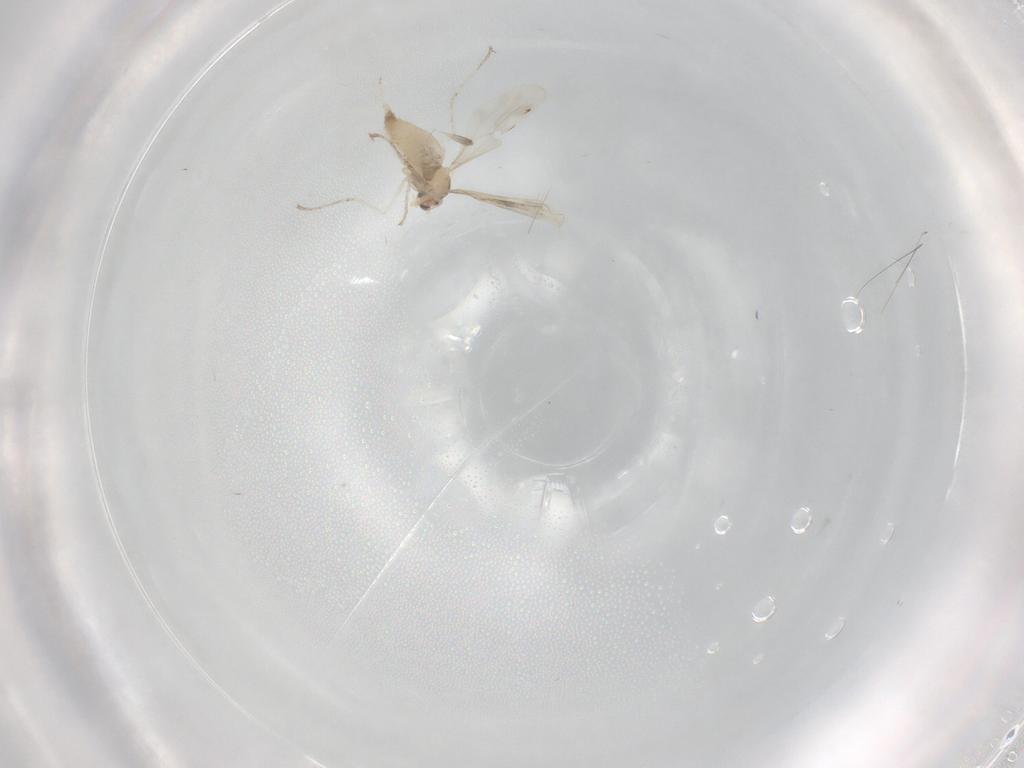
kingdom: Animalia
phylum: Arthropoda
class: Insecta
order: Diptera
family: Cecidomyiidae
